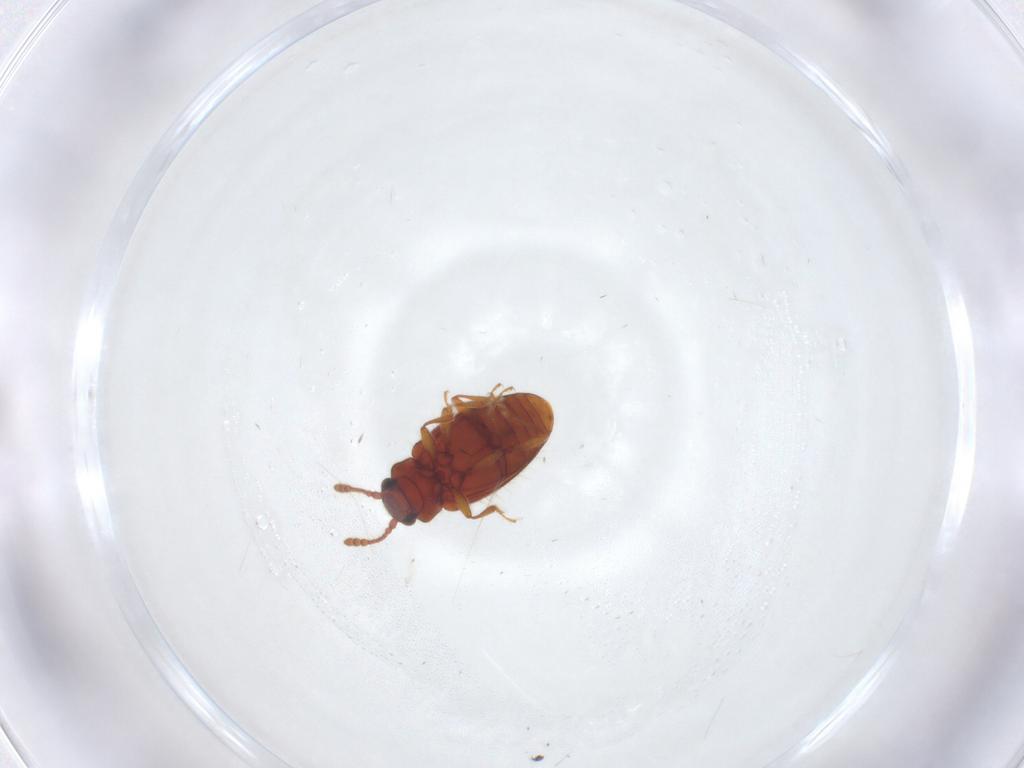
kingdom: Animalia
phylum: Arthropoda
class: Insecta
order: Coleoptera
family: Cryptophagidae
